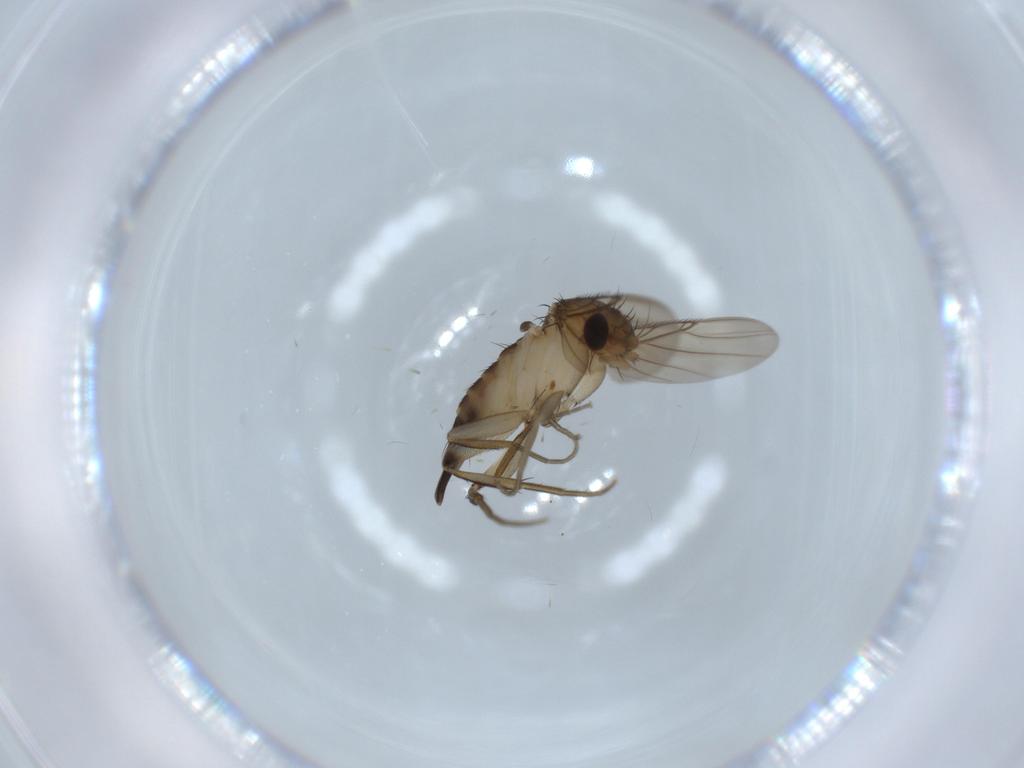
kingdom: Animalia
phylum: Arthropoda
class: Insecta
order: Diptera
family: Phoridae
